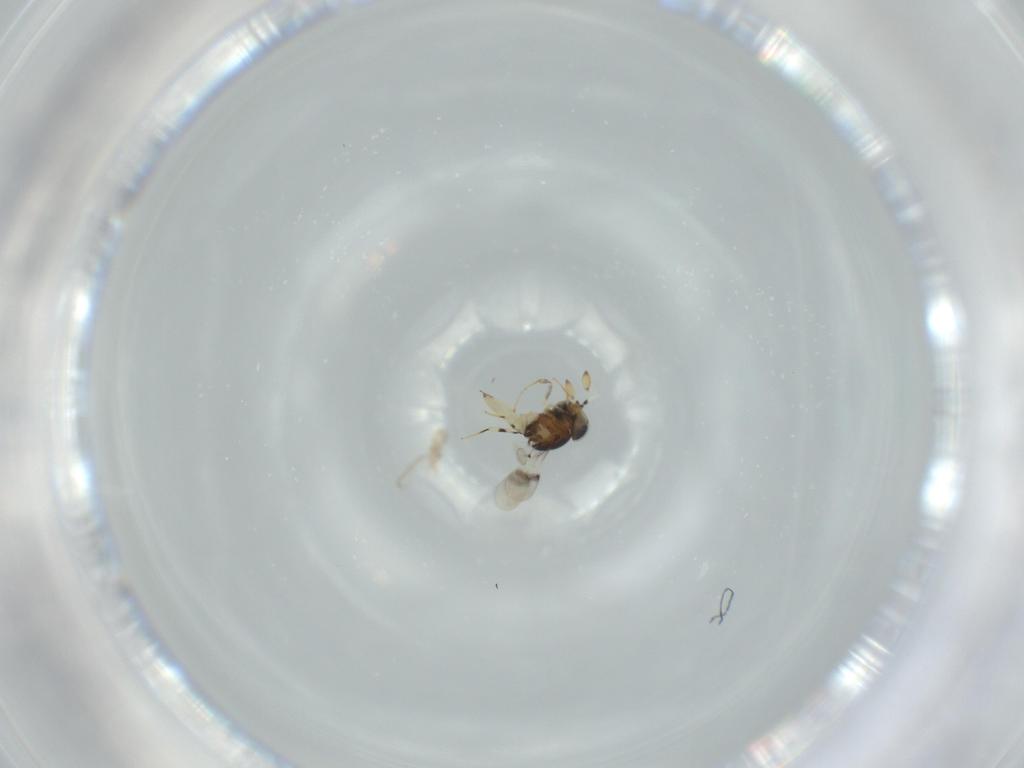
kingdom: Animalia
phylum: Arthropoda
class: Insecta
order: Hymenoptera
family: Scelionidae
